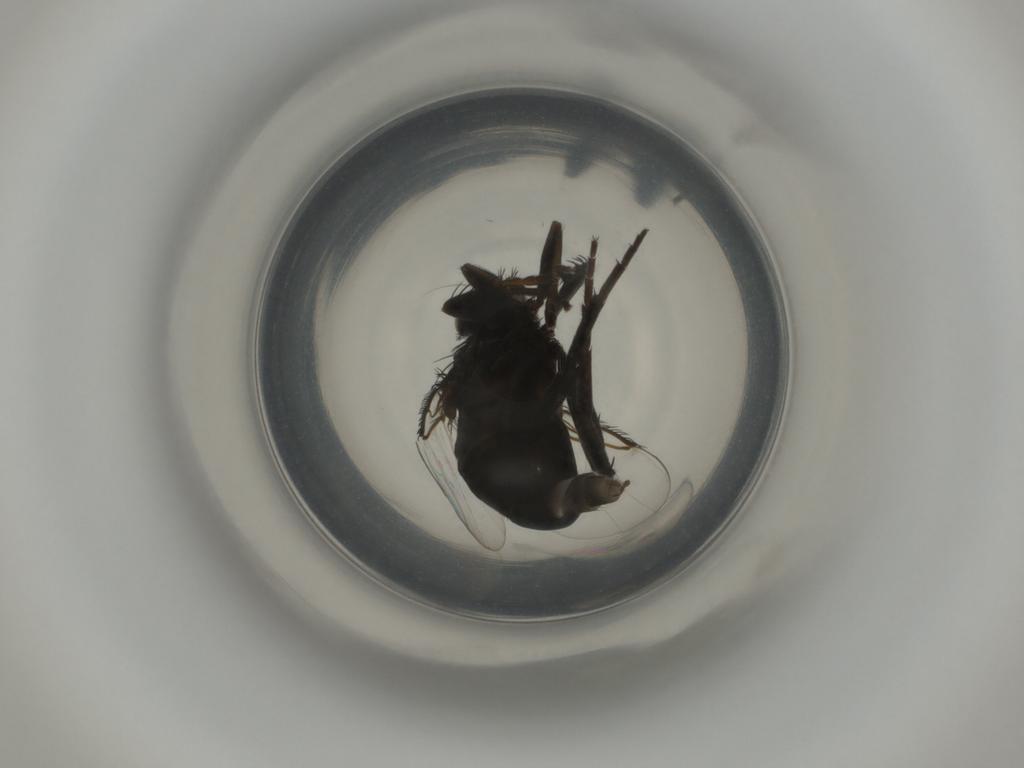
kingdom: Animalia
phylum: Arthropoda
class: Insecta
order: Diptera
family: Phoridae
